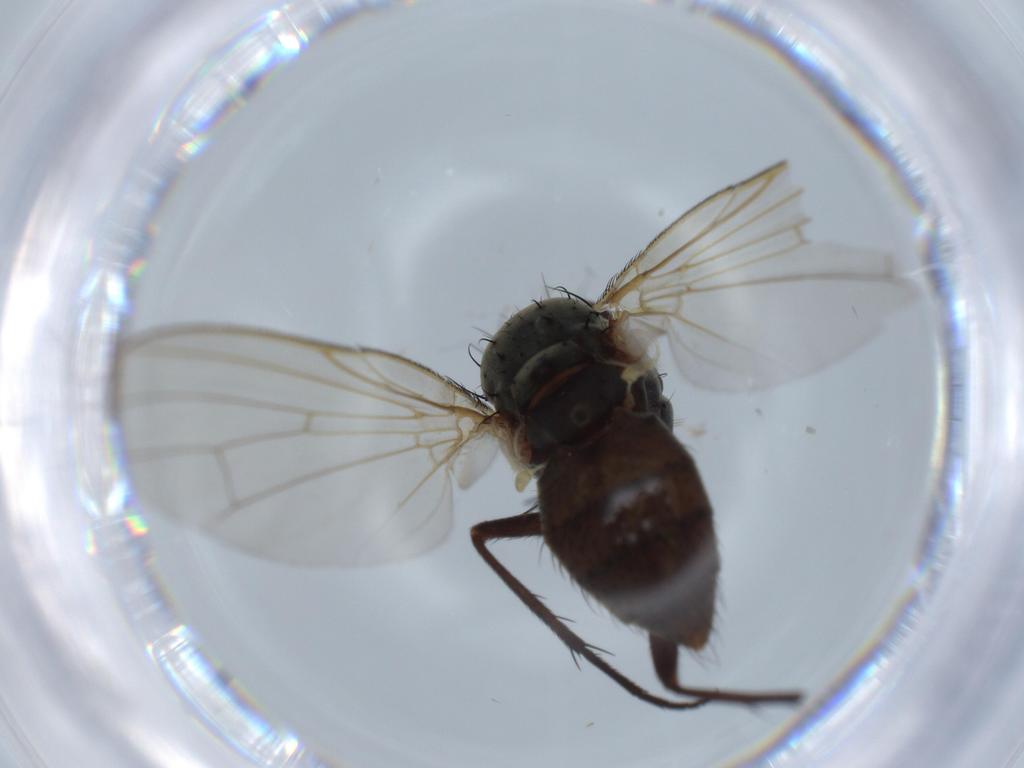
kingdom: Animalia
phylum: Arthropoda
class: Insecta
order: Diptera
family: Anthomyiidae
